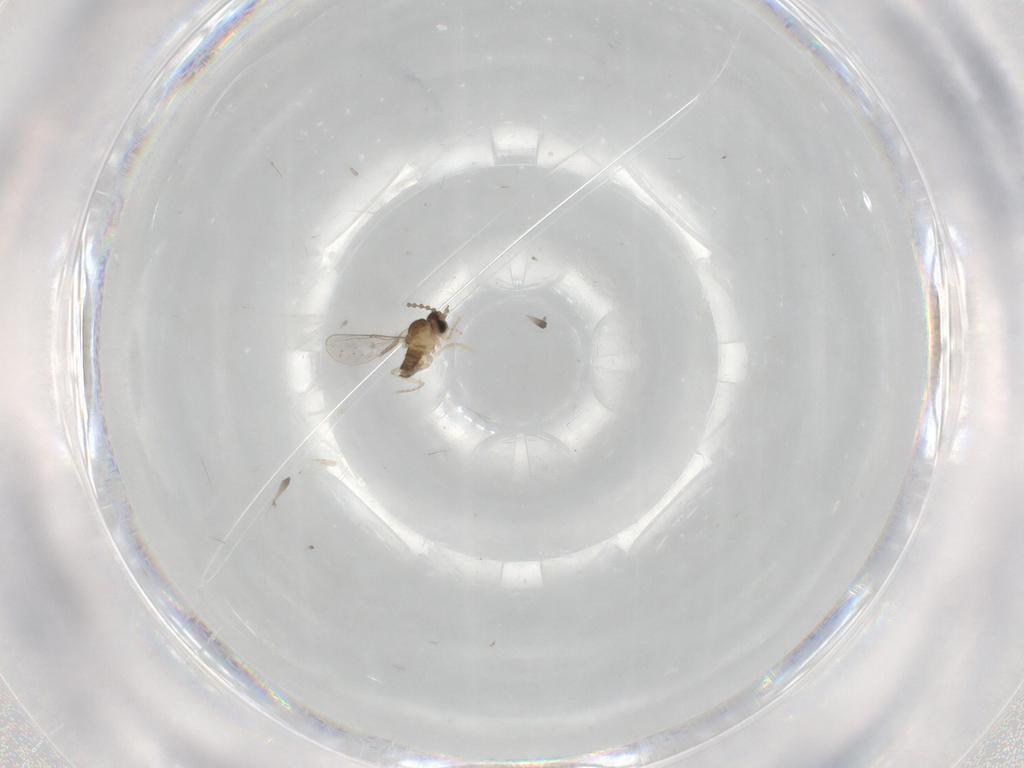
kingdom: Animalia
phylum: Arthropoda
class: Insecta
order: Diptera
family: Cecidomyiidae
